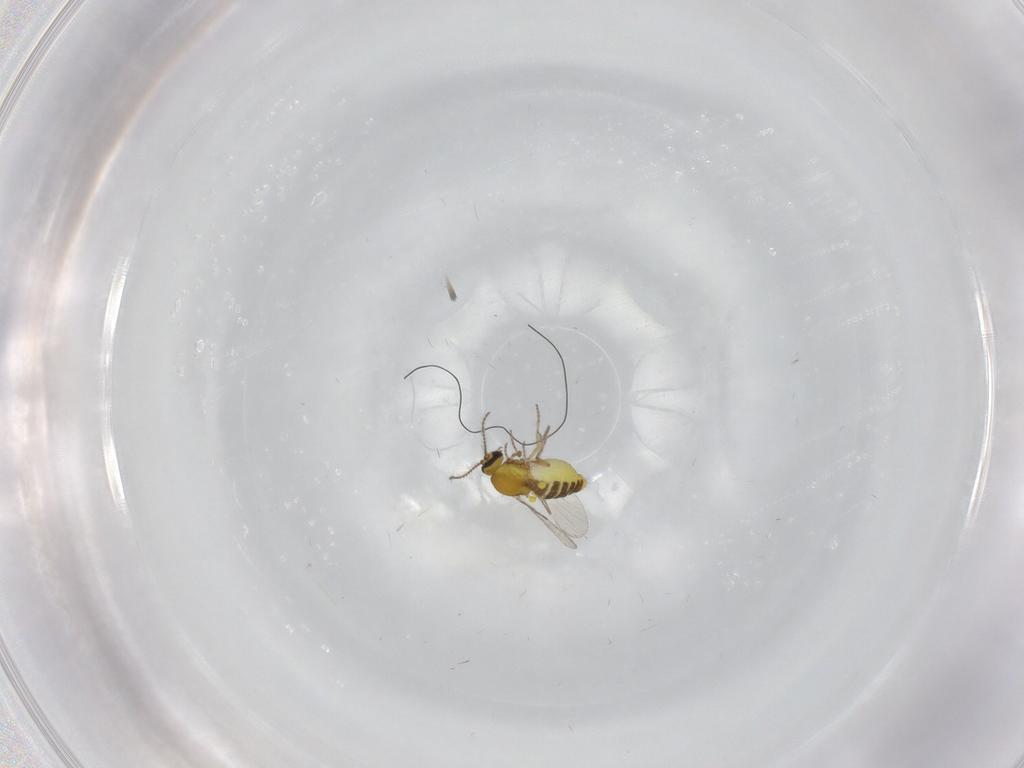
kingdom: Animalia
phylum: Arthropoda
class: Insecta
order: Diptera
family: Ceratopogonidae
